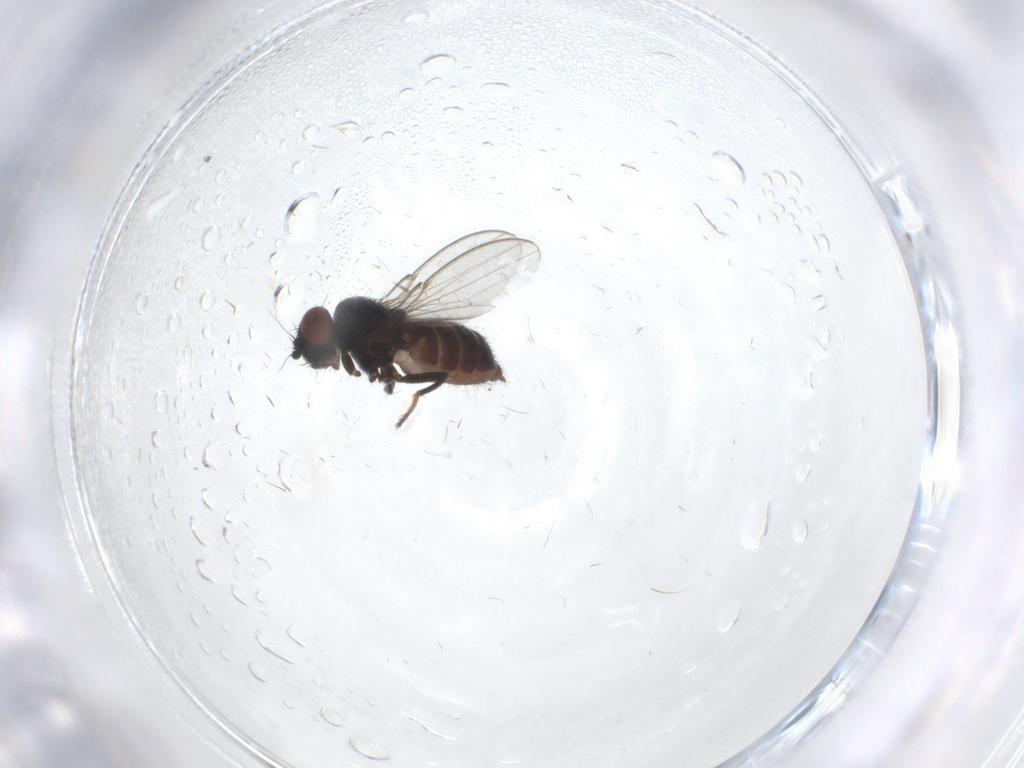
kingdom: Animalia
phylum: Arthropoda
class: Insecta
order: Diptera
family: Milichiidae
